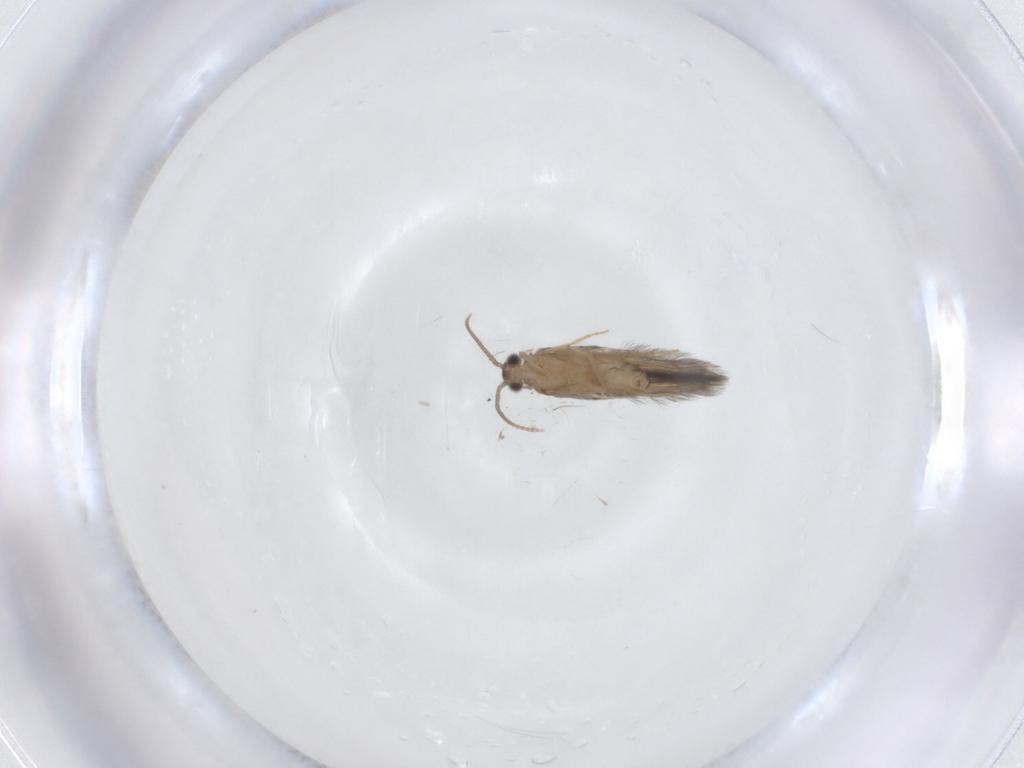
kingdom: Animalia
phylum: Arthropoda
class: Insecta
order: Trichoptera
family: Hydroptilidae
